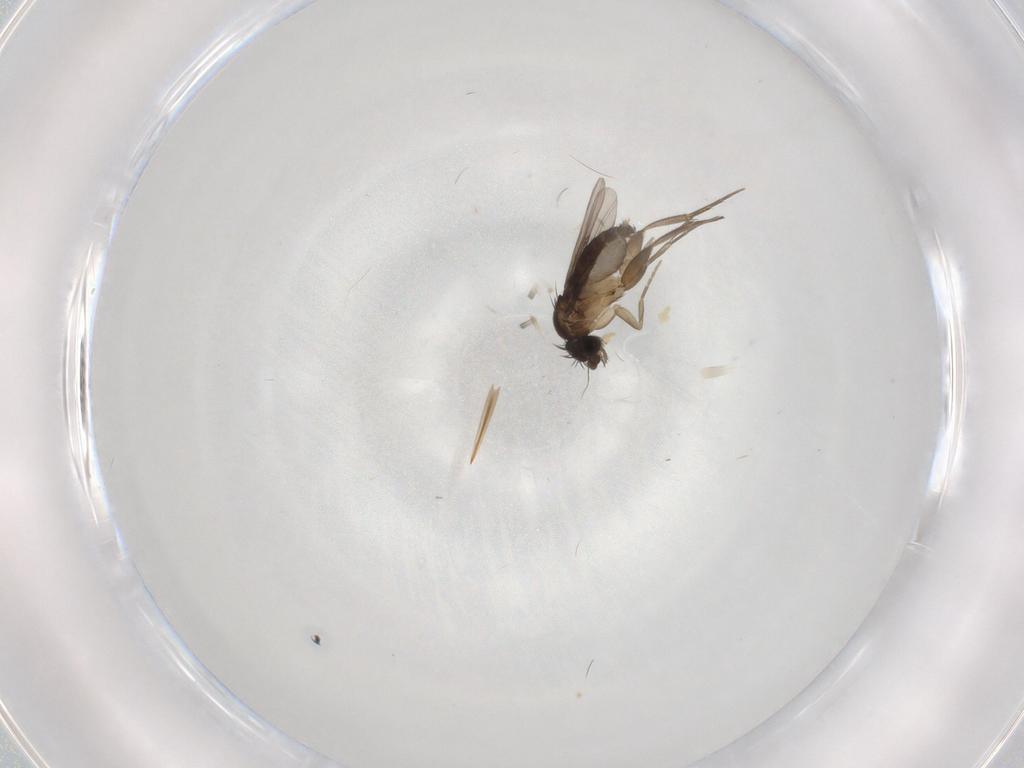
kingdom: Animalia
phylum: Arthropoda
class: Insecta
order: Diptera
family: Phoridae
